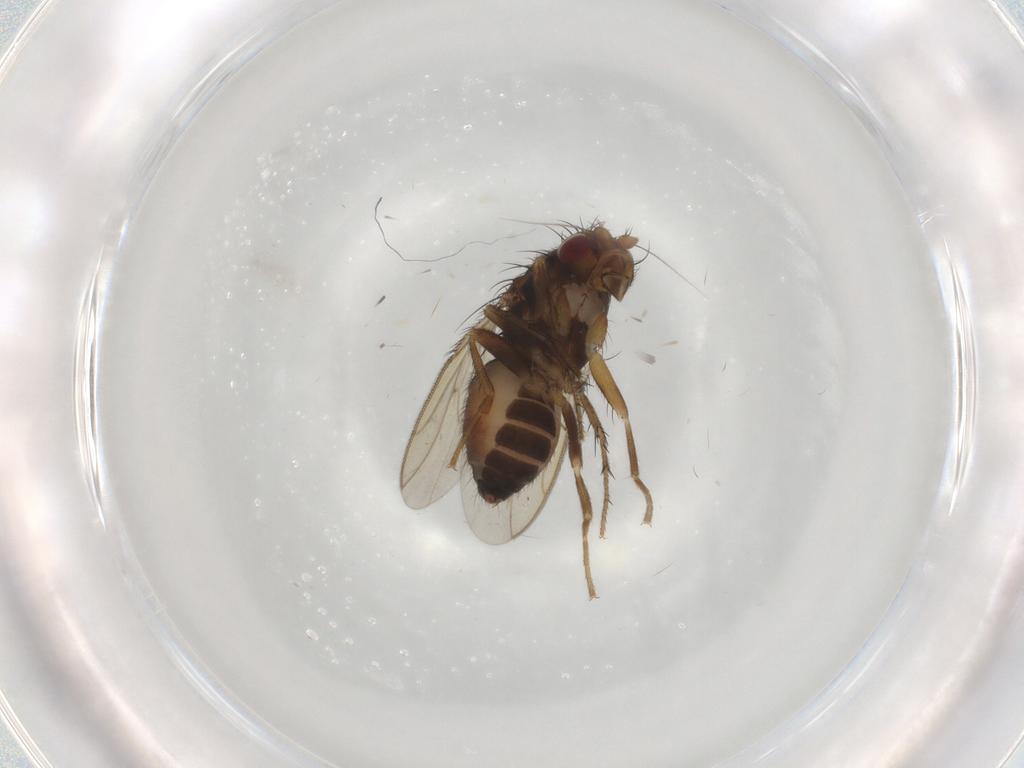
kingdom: Animalia
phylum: Arthropoda
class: Insecta
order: Diptera
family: Sphaeroceridae
